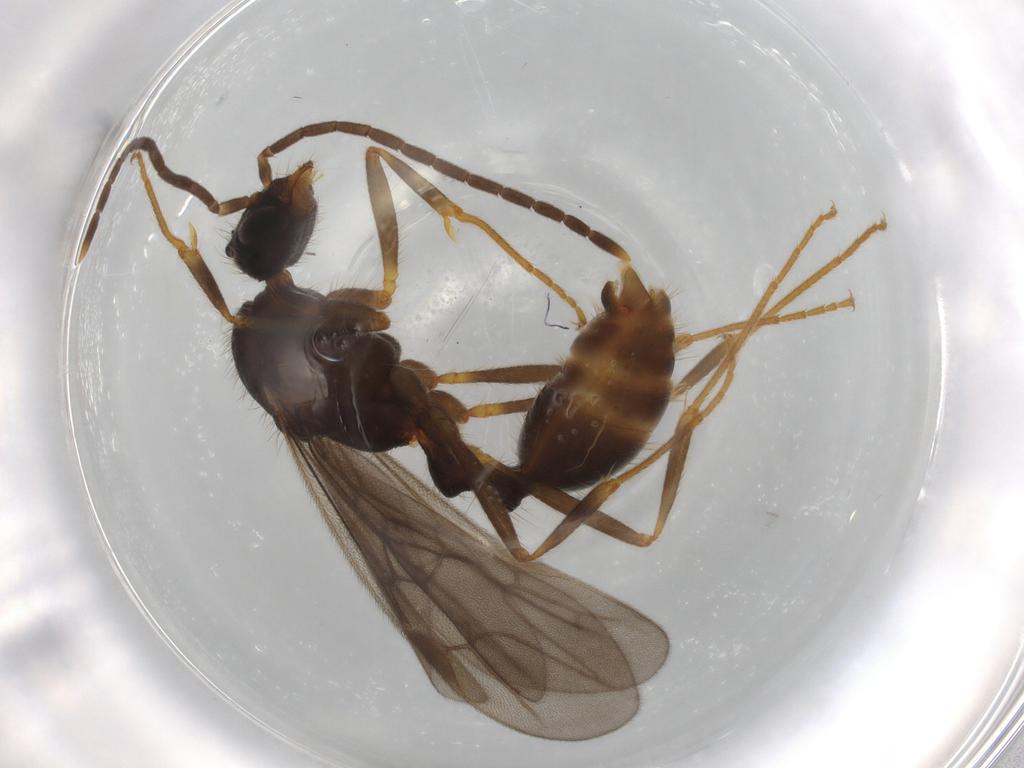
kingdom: Animalia
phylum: Arthropoda
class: Insecta
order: Hymenoptera
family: Formicidae
